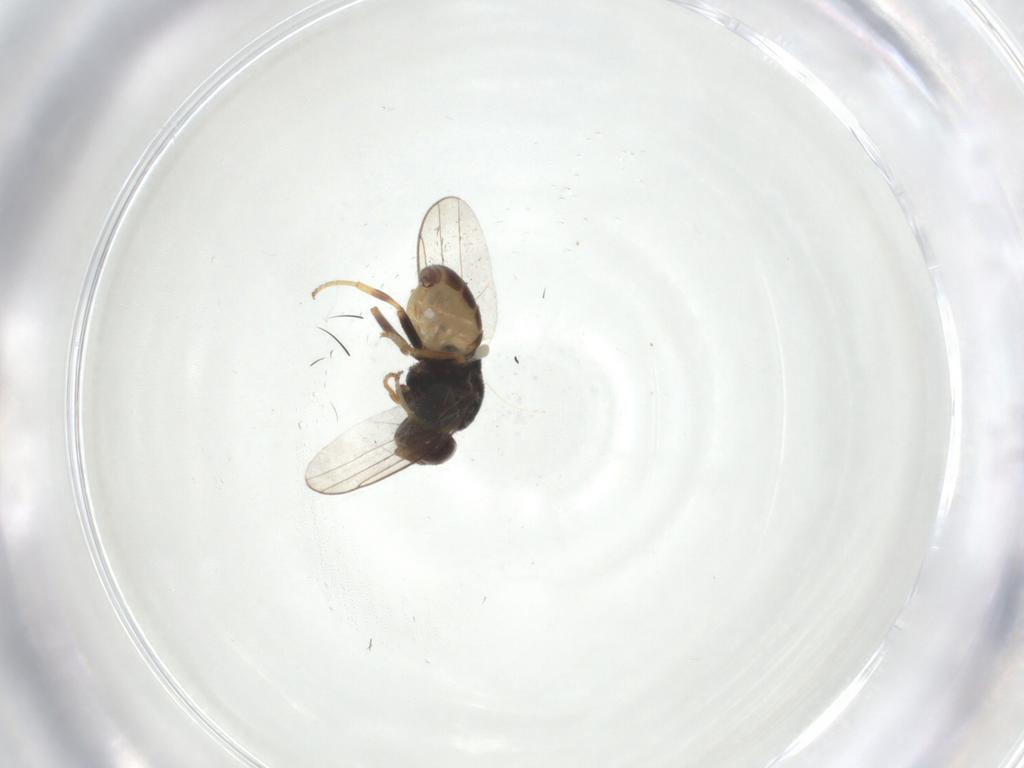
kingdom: Animalia
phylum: Arthropoda
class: Insecta
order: Diptera
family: Chloropidae
